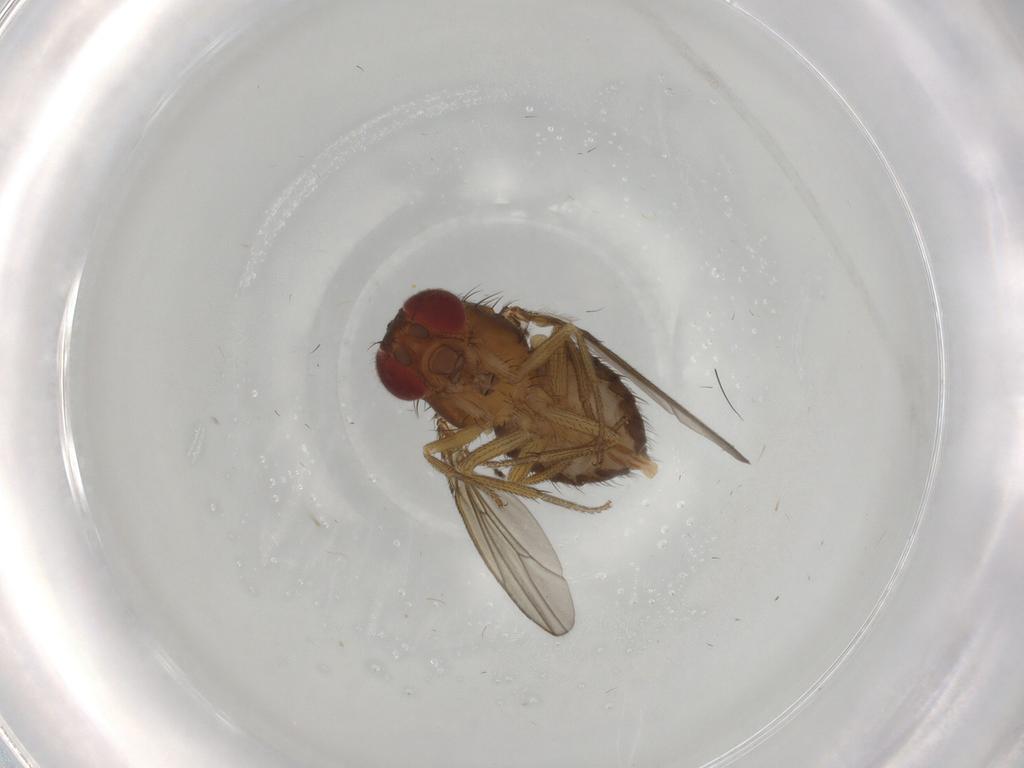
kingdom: Animalia
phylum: Arthropoda
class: Insecta
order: Diptera
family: Drosophilidae
